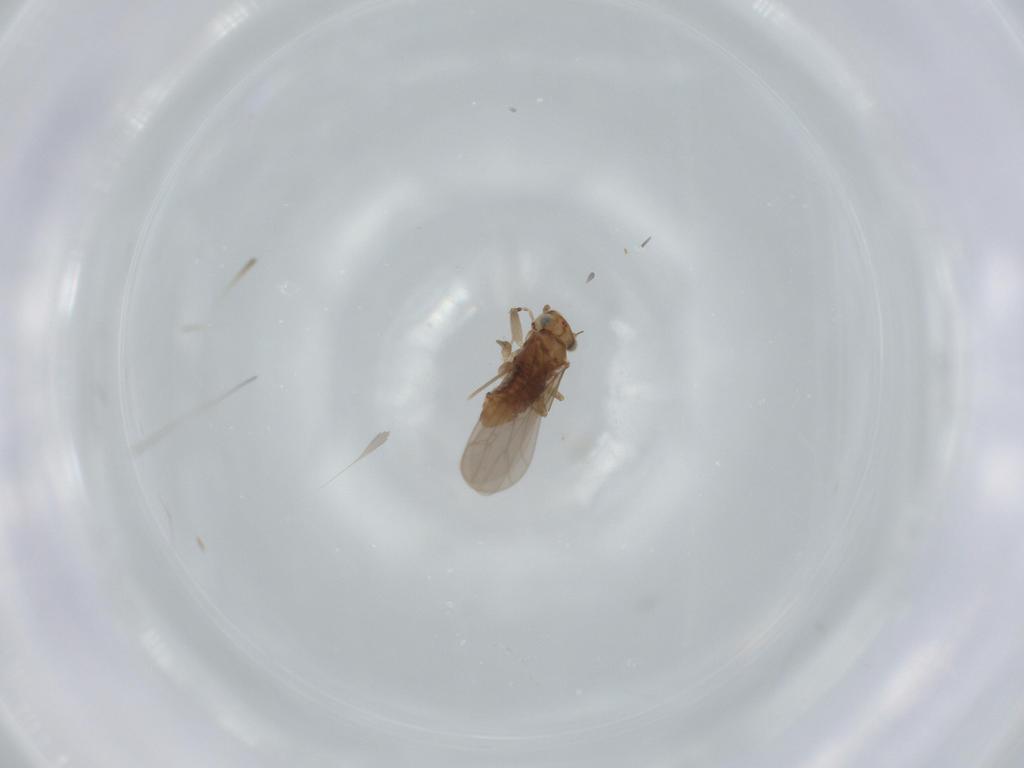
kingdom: Animalia
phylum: Arthropoda
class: Insecta
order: Psocodea
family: Lepidopsocidae
